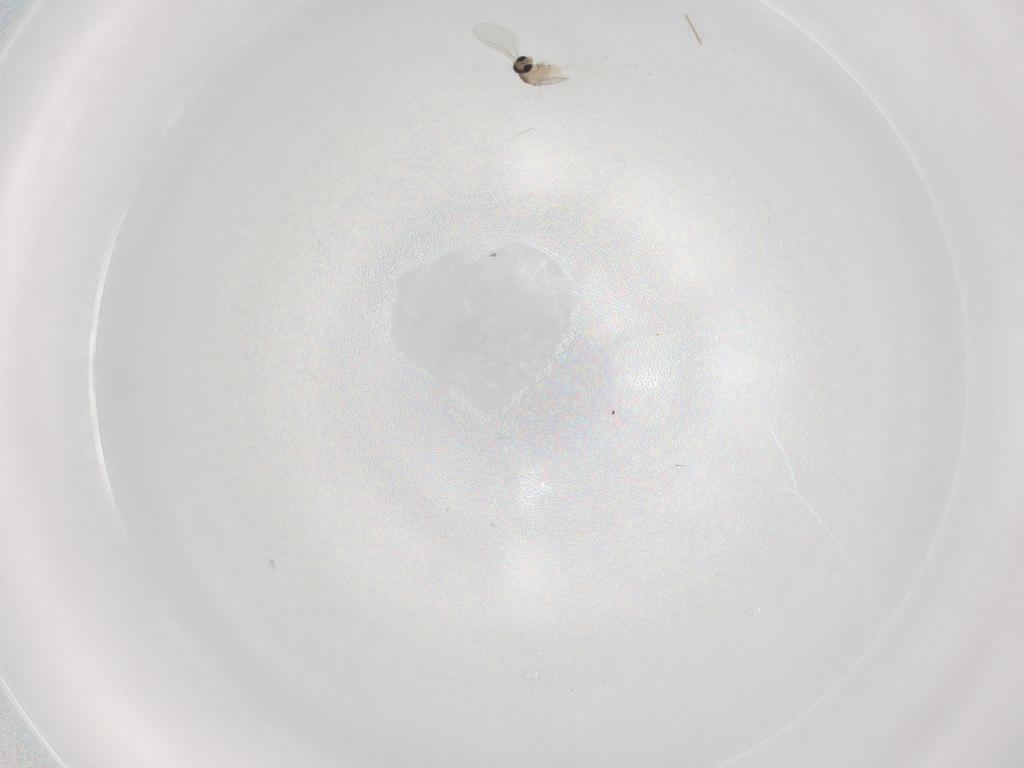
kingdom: Animalia
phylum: Arthropoda
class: Insecta
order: Diptera
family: Cecidomyiidae
